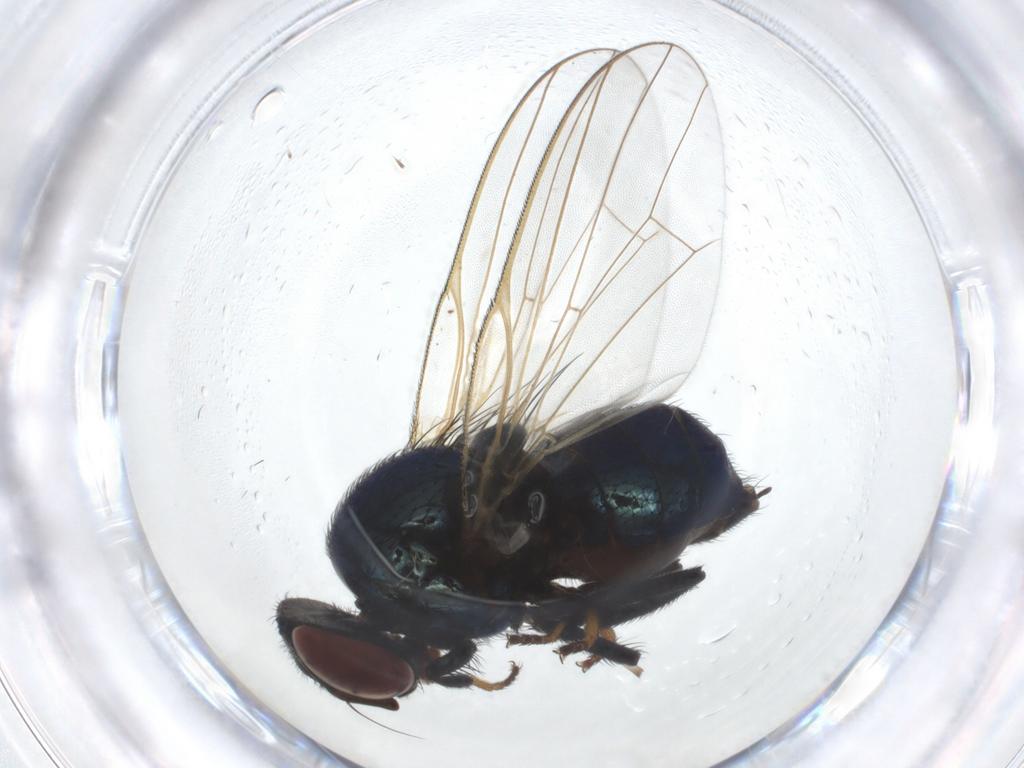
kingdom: Animalia
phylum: Arthropoda
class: Insecta
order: Diptera
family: Lonchaeidae
